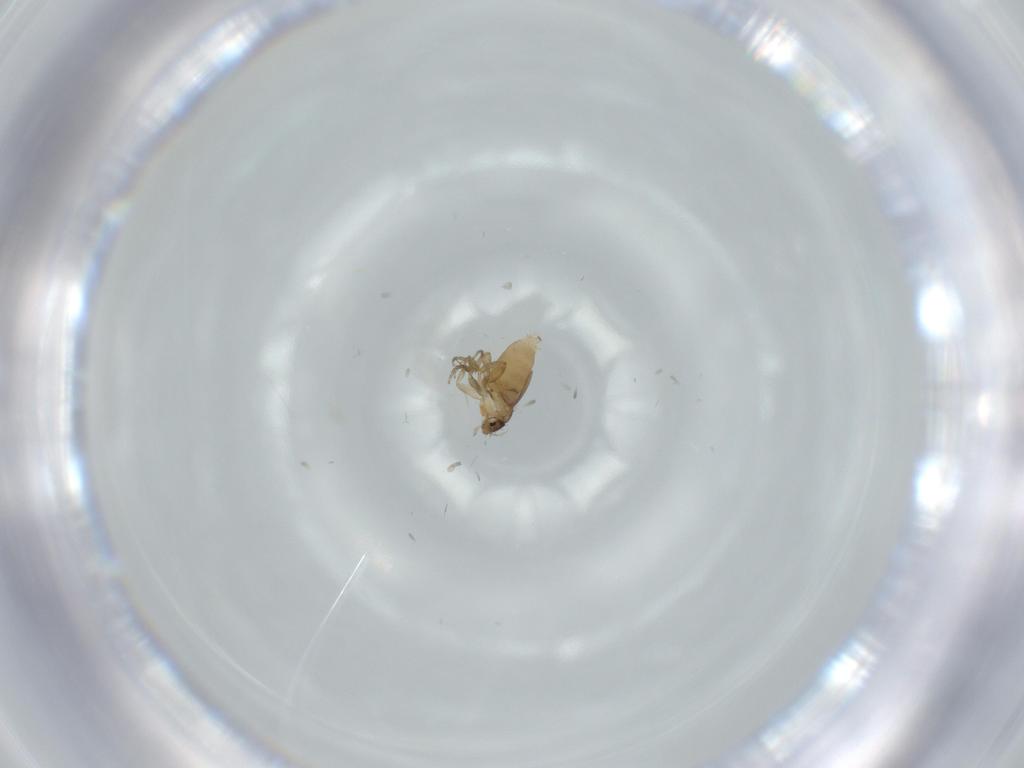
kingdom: Animalia
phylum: Arthropoda
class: Insecta
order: Diptera
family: Phoridae
